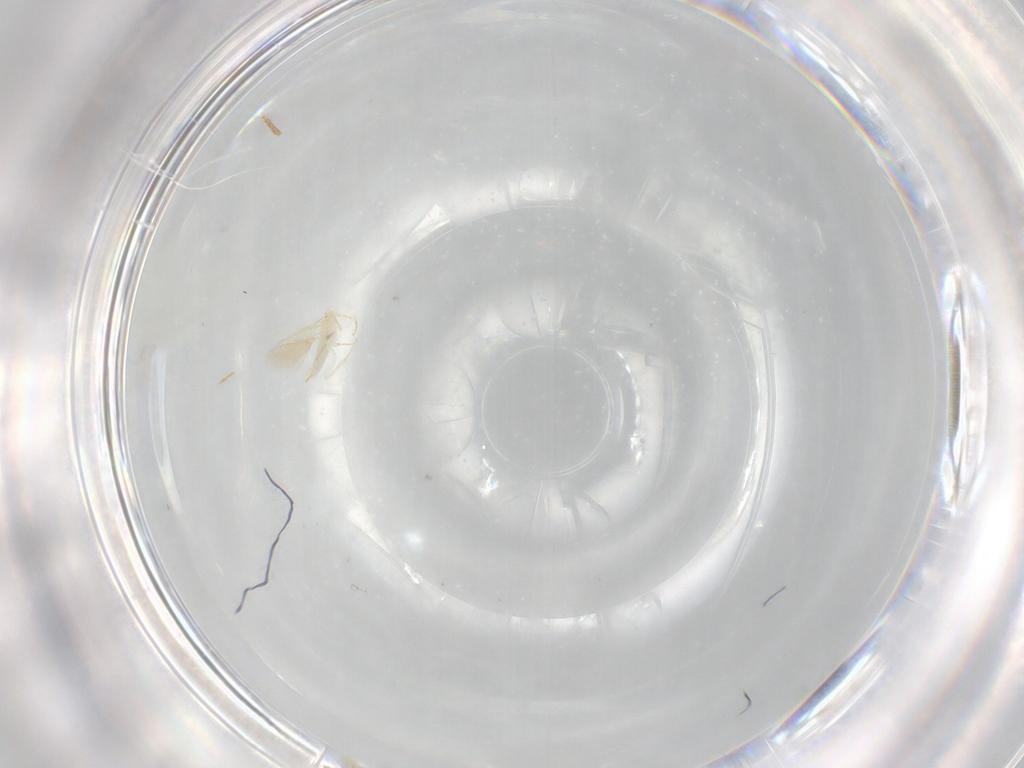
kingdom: Animalia
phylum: Arthropoda
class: Insecta
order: Hymenoptera
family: Aphelinidae
